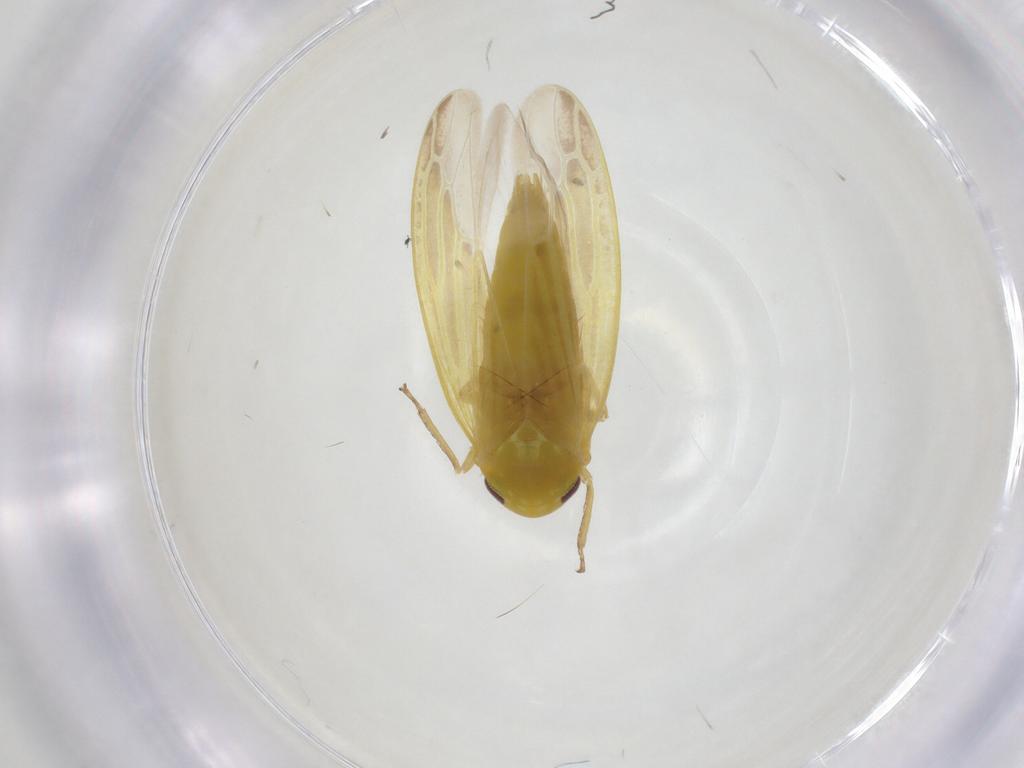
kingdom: Animalia
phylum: Arthropoda
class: Insecta
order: Hemiptera
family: Cicadellidae
